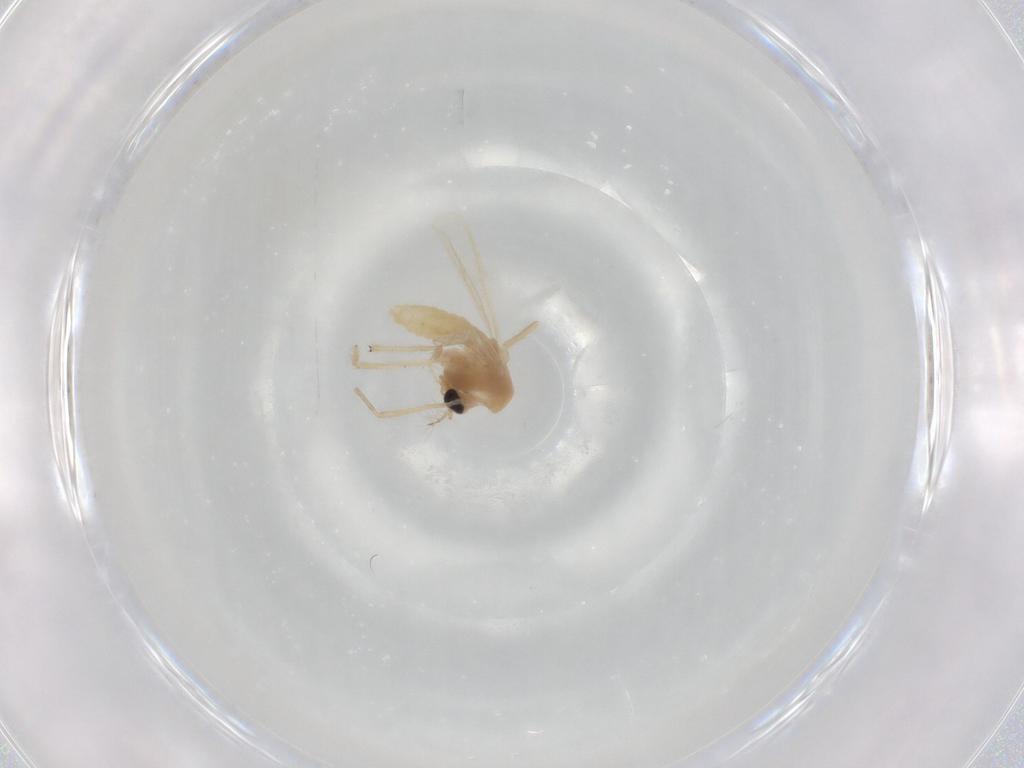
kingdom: Animalia
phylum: Arthropoda
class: Insecta
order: Diptera
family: Chironomidae
